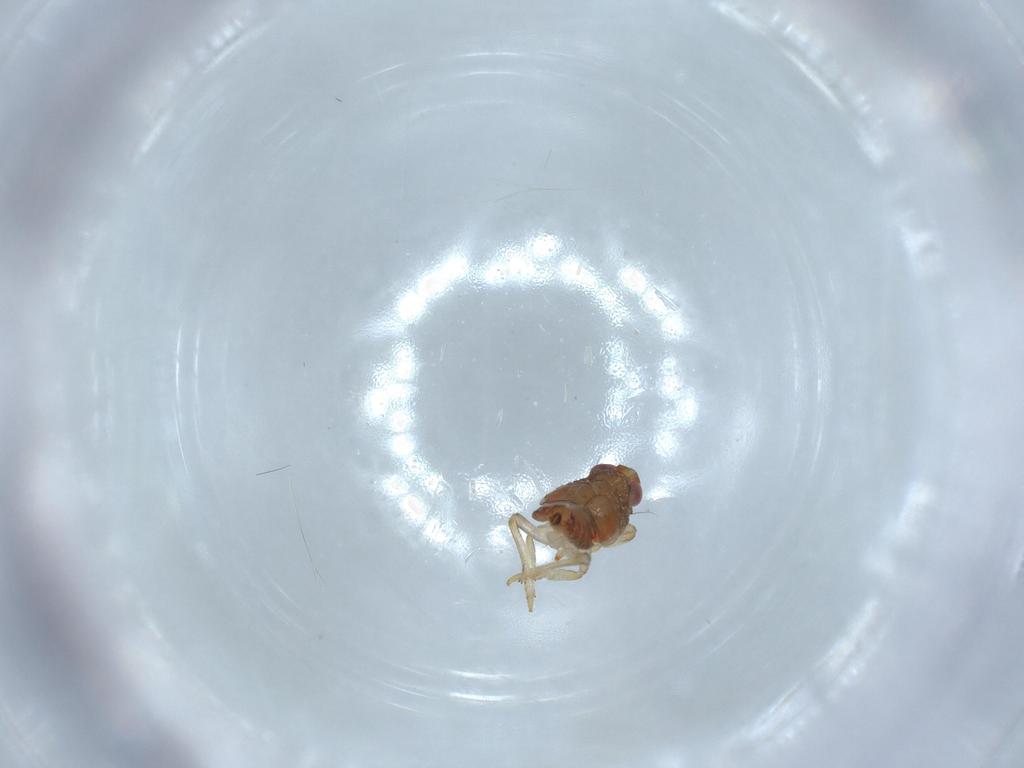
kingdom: Animalia
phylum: Arthropoda
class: Insecta
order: Hemiptera
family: Issidae
